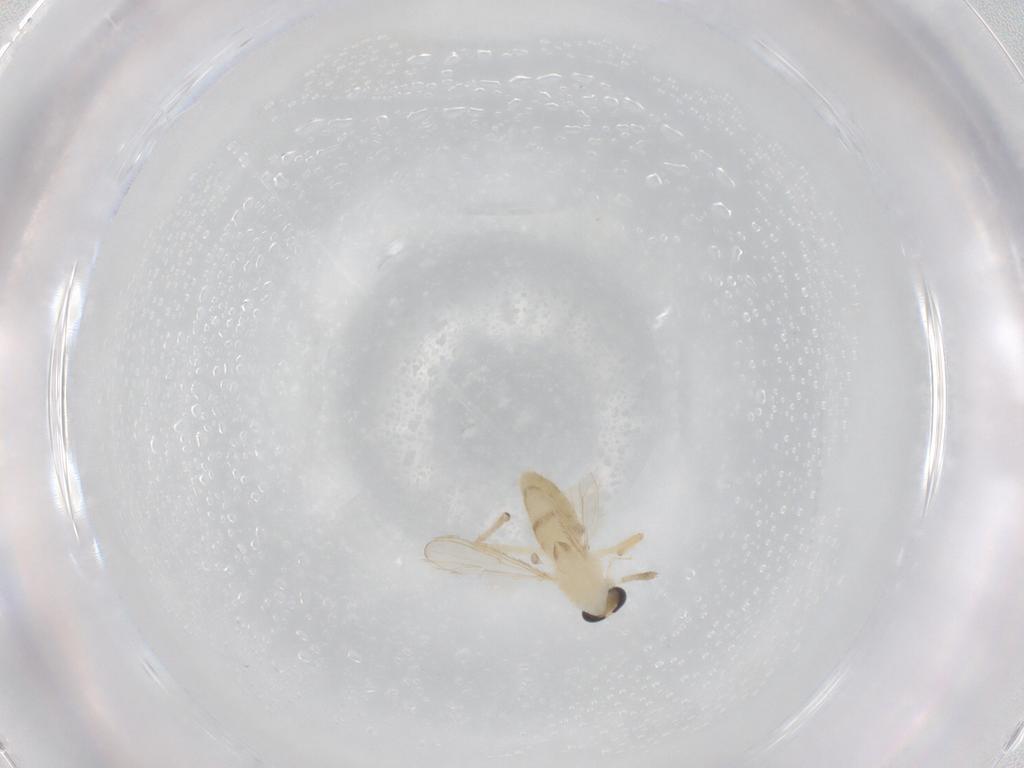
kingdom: Animalia
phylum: Arthropoda
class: Insecta
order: Diptera
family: Chironomidae
